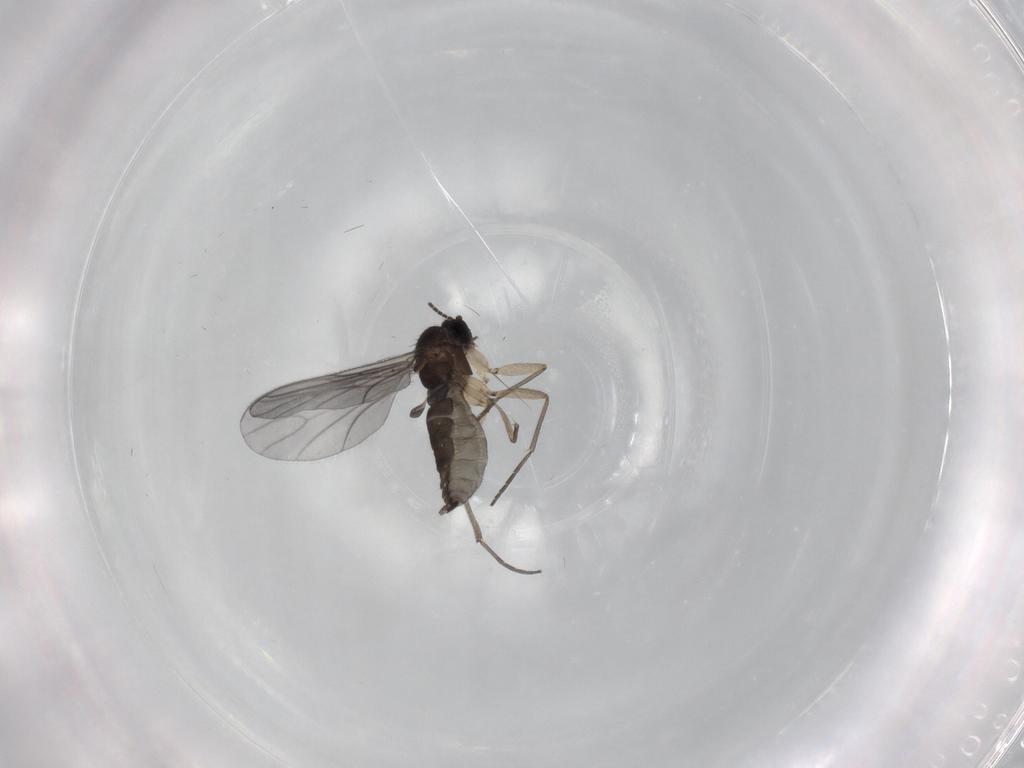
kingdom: Animalia
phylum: Arthropoda
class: Insecta
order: Diptera
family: Sciaridae
